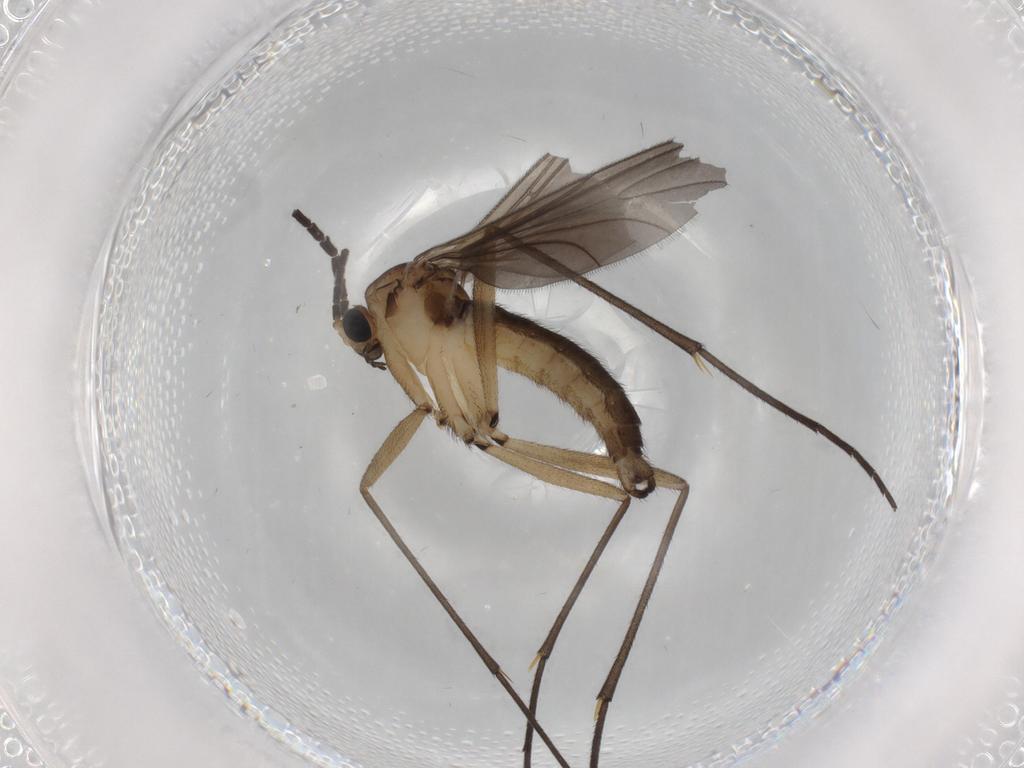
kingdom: Animalia
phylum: Arthropoda
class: Insecta
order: Diptera
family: Sciaridae
